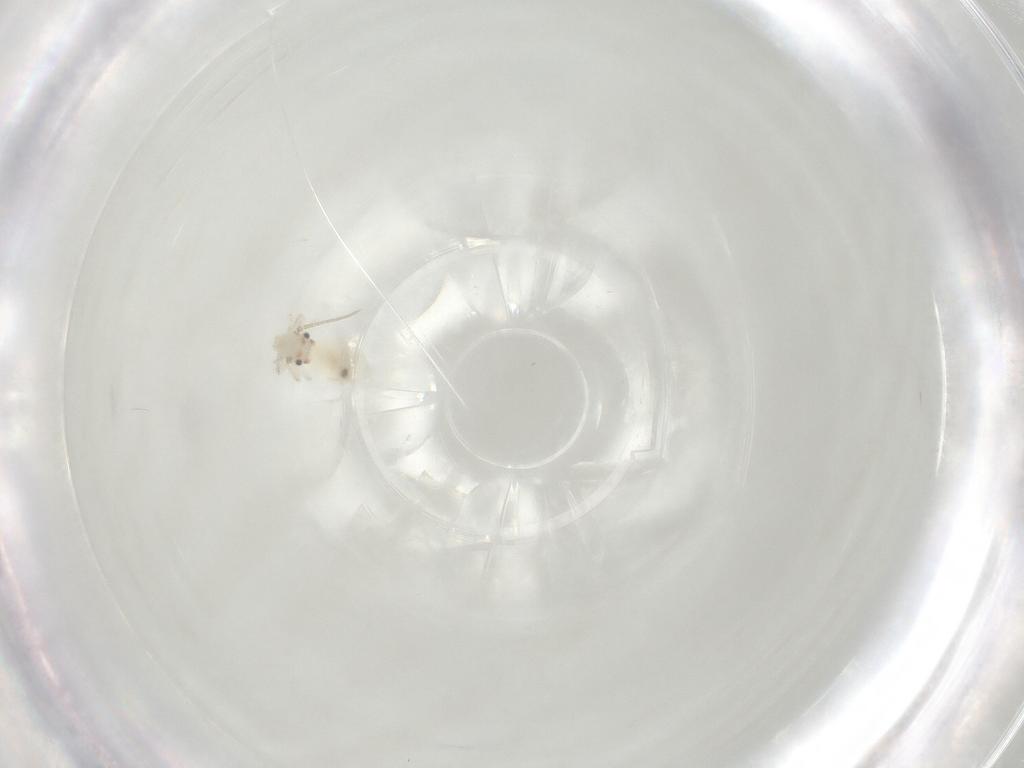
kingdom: Animalia
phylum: Arthropoda
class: Insecta
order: Psocodea
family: Caeciliusidae
